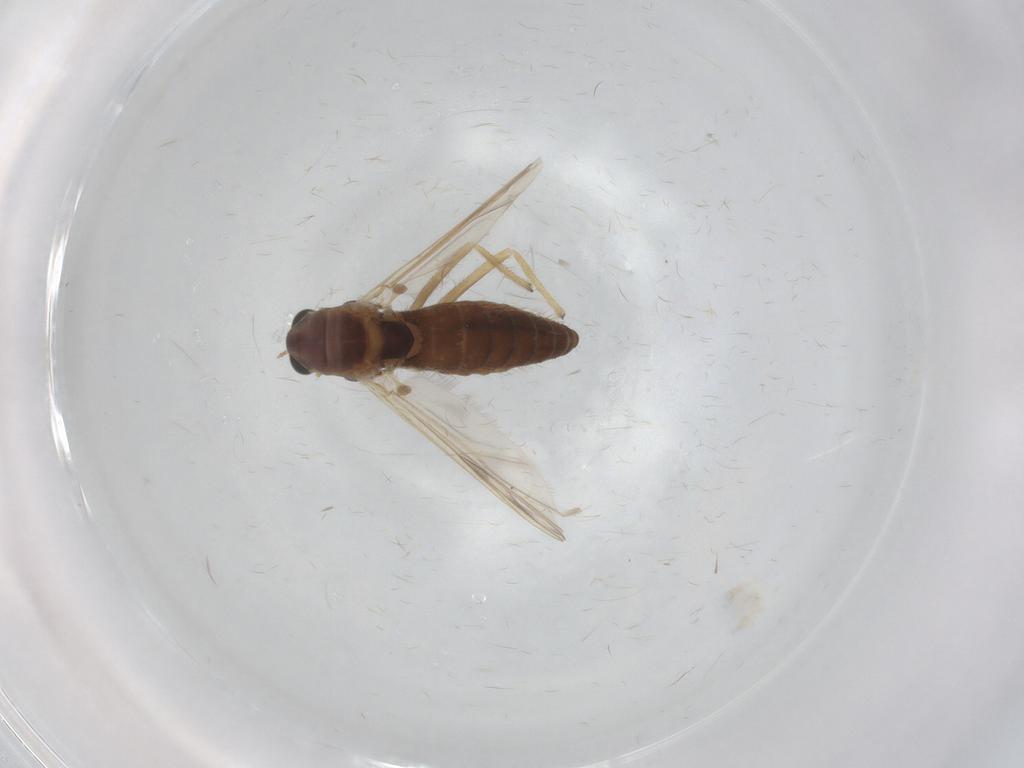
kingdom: Animalia
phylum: Arthropoda
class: Insecta
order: Diptera
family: Chironomidae
